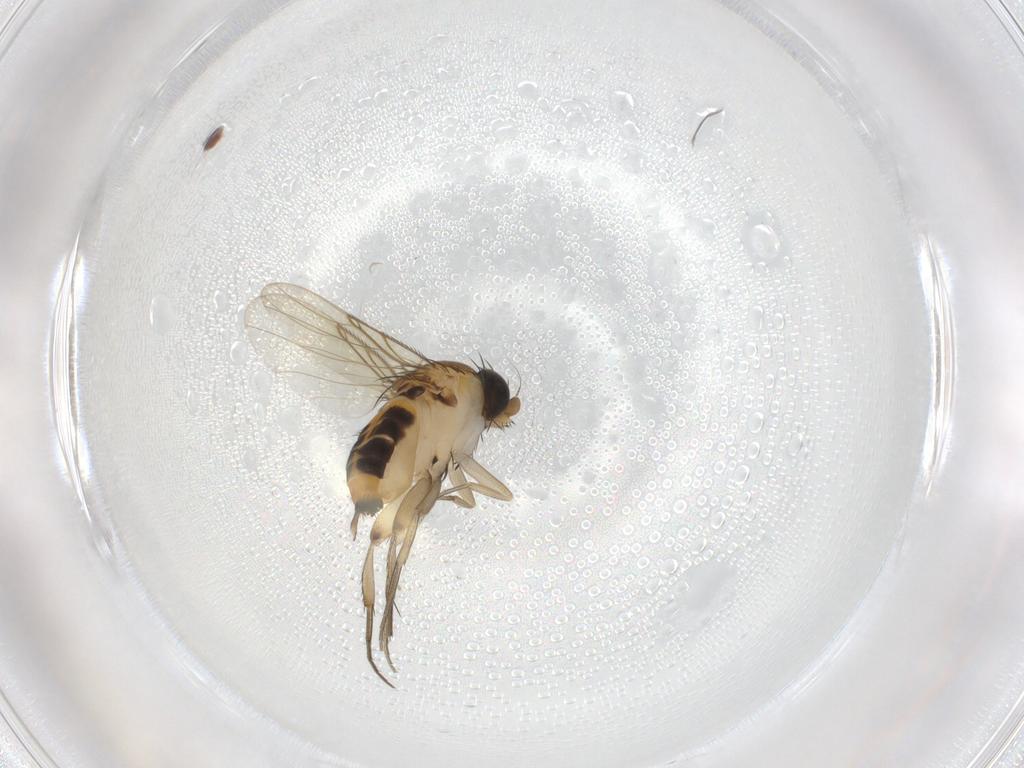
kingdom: Animalia
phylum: Arthropoda
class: Insecta
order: Diptera
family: Phoridae
